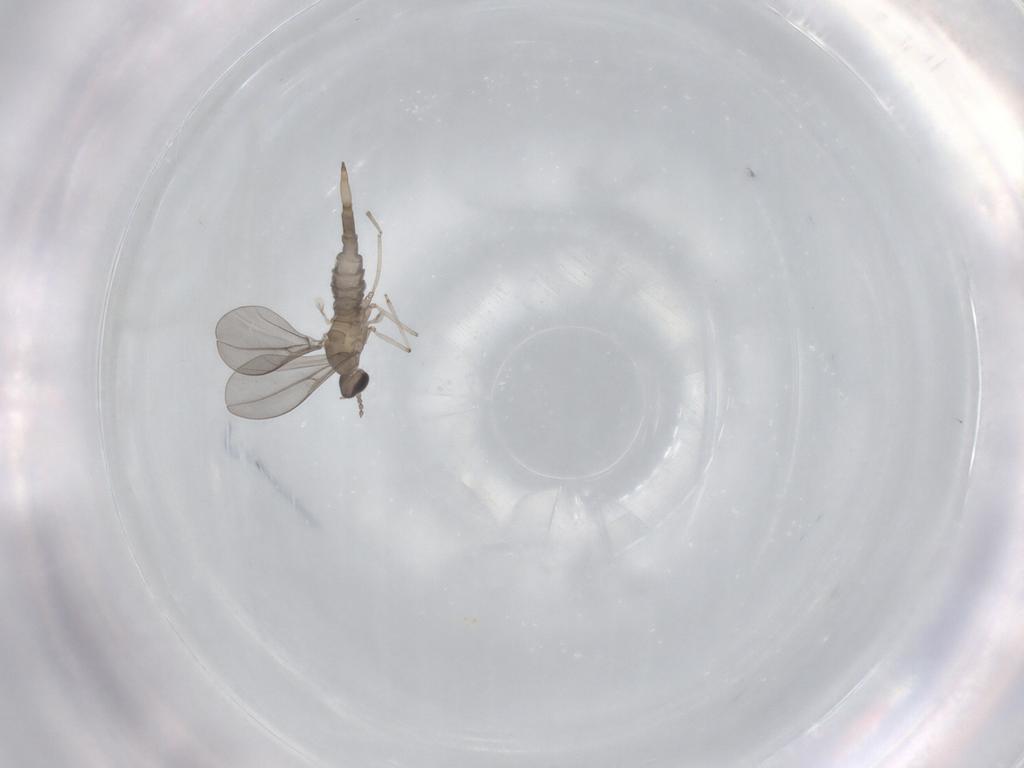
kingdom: Animalia
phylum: Arthropoda
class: Insecta
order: Diptera
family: Cecidomyiidae
